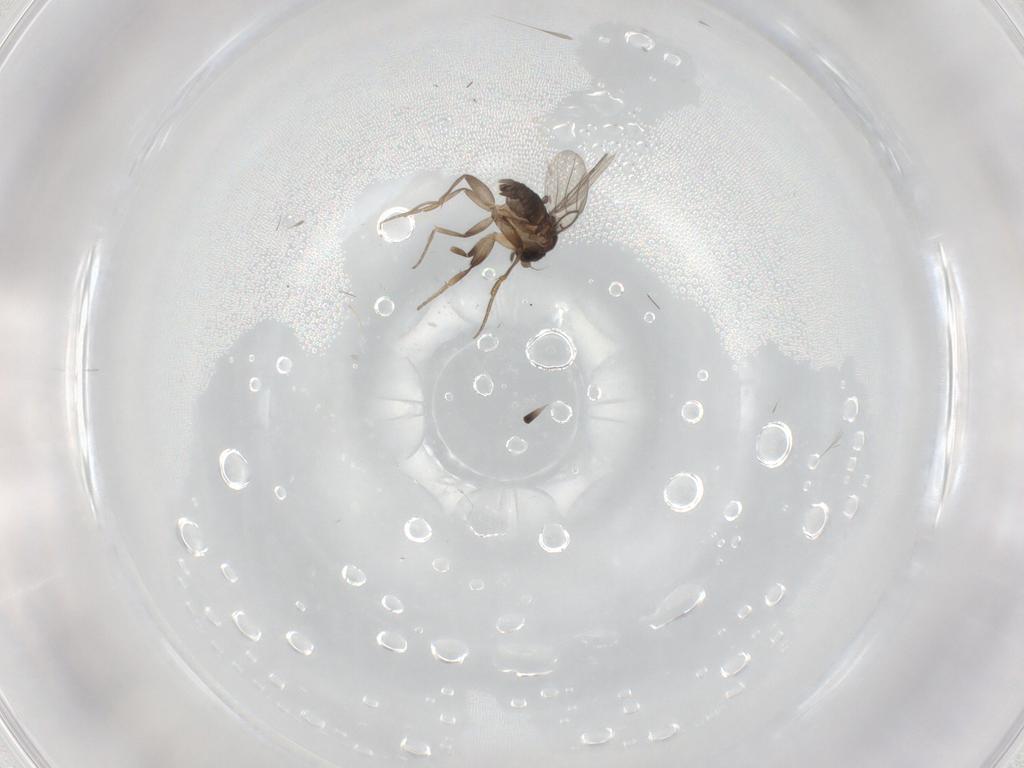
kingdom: Animalia
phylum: Arthropoda
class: Insecta
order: Diptera
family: Chironomidae
